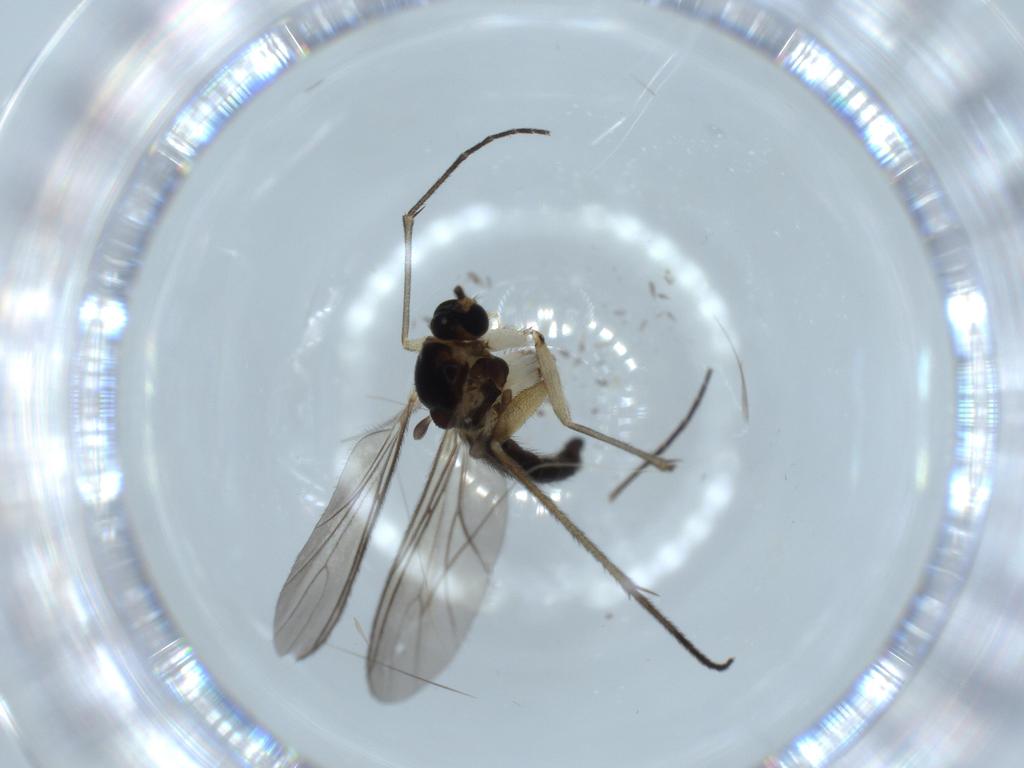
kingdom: Animalia
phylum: Arthropoda
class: Insecta
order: Diptera
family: Sciaridae
